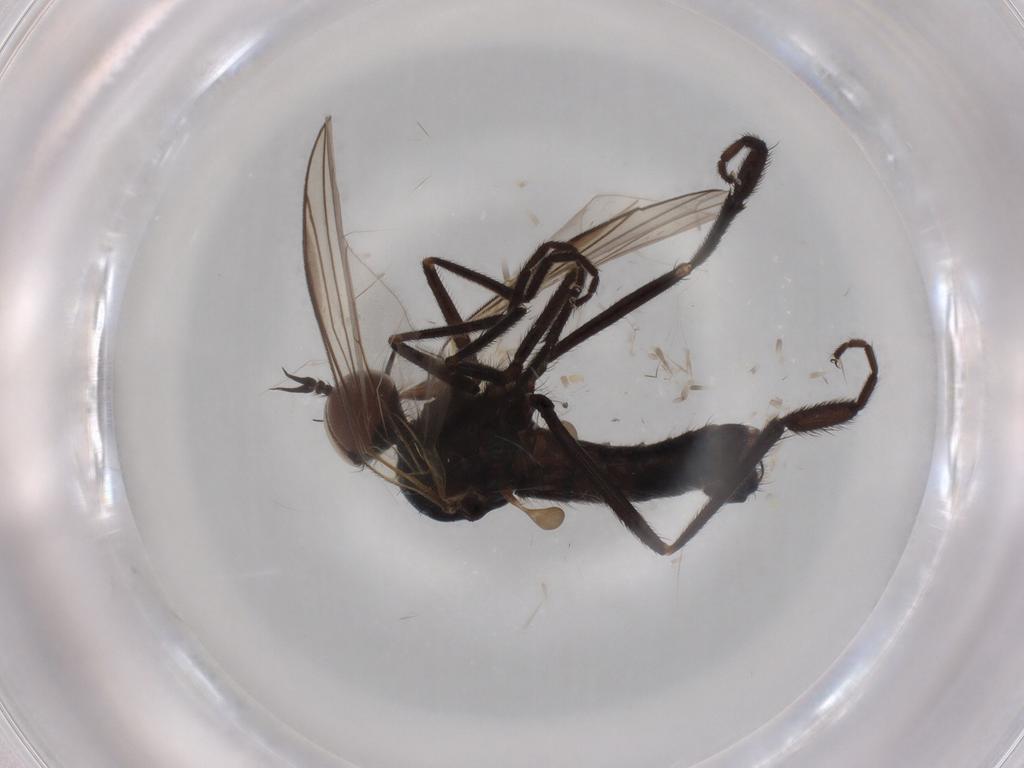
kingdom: Animalia
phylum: Arthropoda
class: Insecta
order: Diptera
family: Empididae
